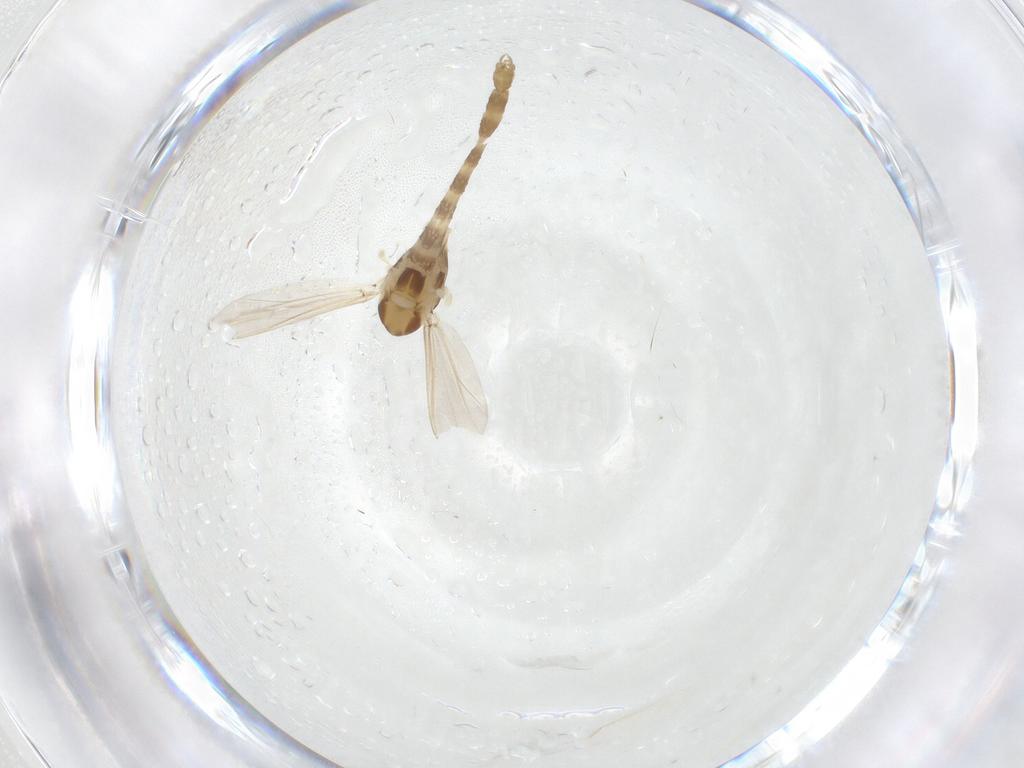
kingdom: Animalia
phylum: Arthropoda
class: Insecta
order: Diptera
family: Chironomidae
